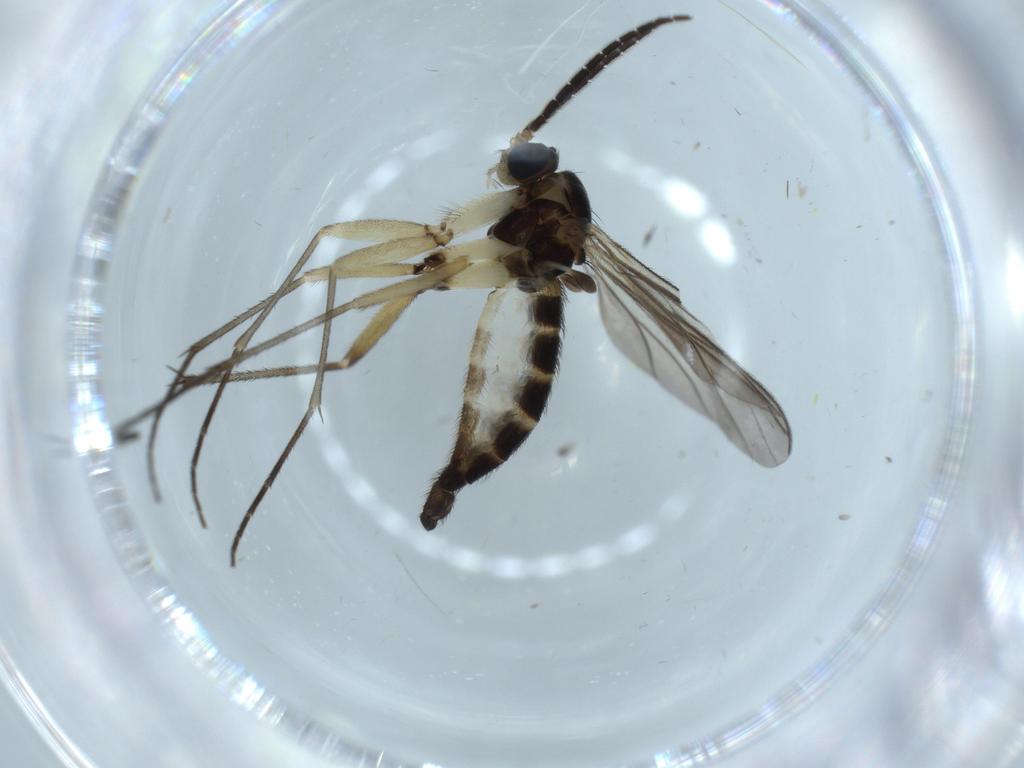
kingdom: Animalia
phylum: Arthropoda
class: Insecta
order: Diptera
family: Sciaridae
